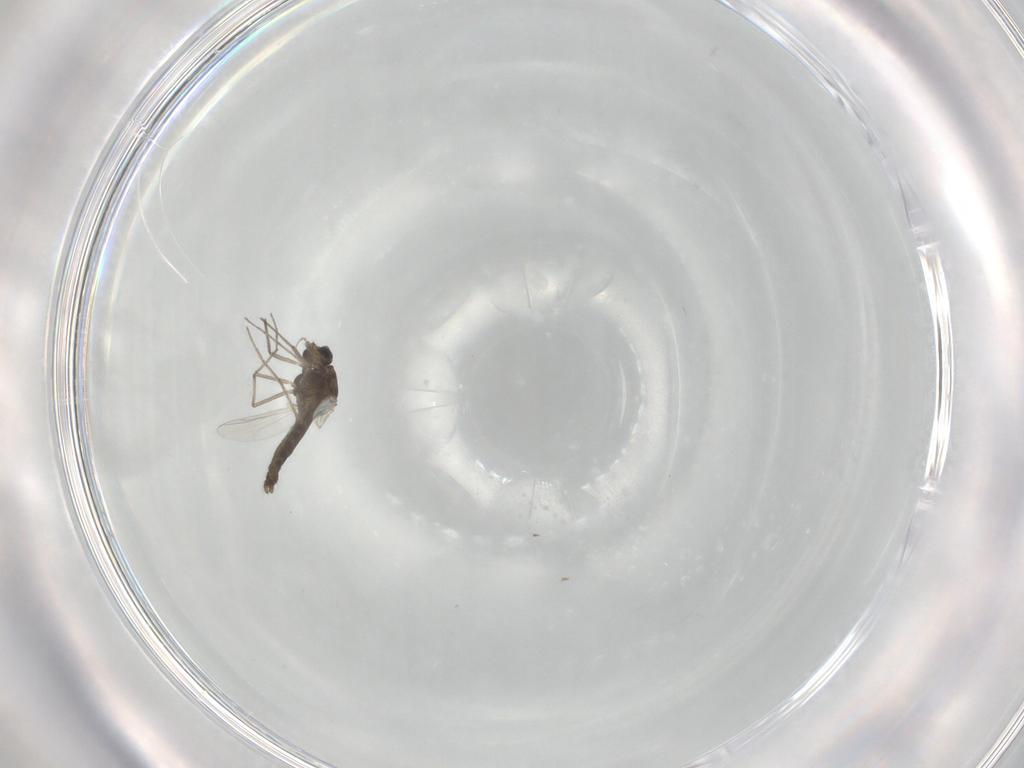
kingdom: Animalia
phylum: Arthropoda
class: Insecta
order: Diptera
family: Chironomidae
